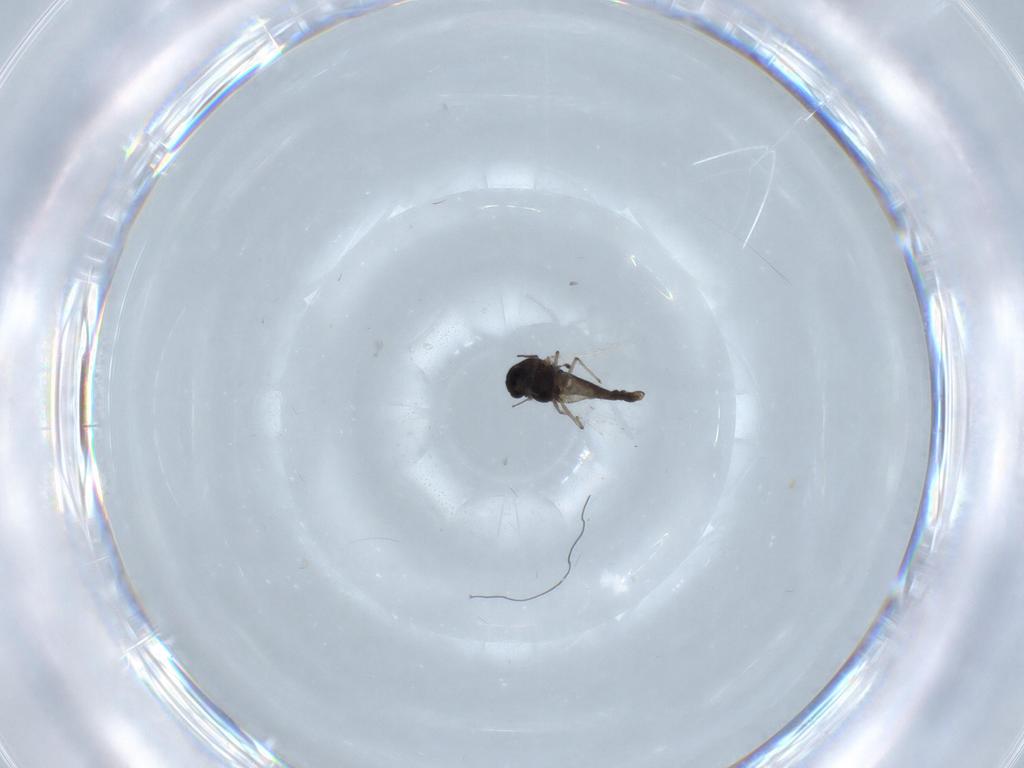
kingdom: Animalia
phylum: Arthropoda
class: Insecta
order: Diptera
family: Chironomidae
